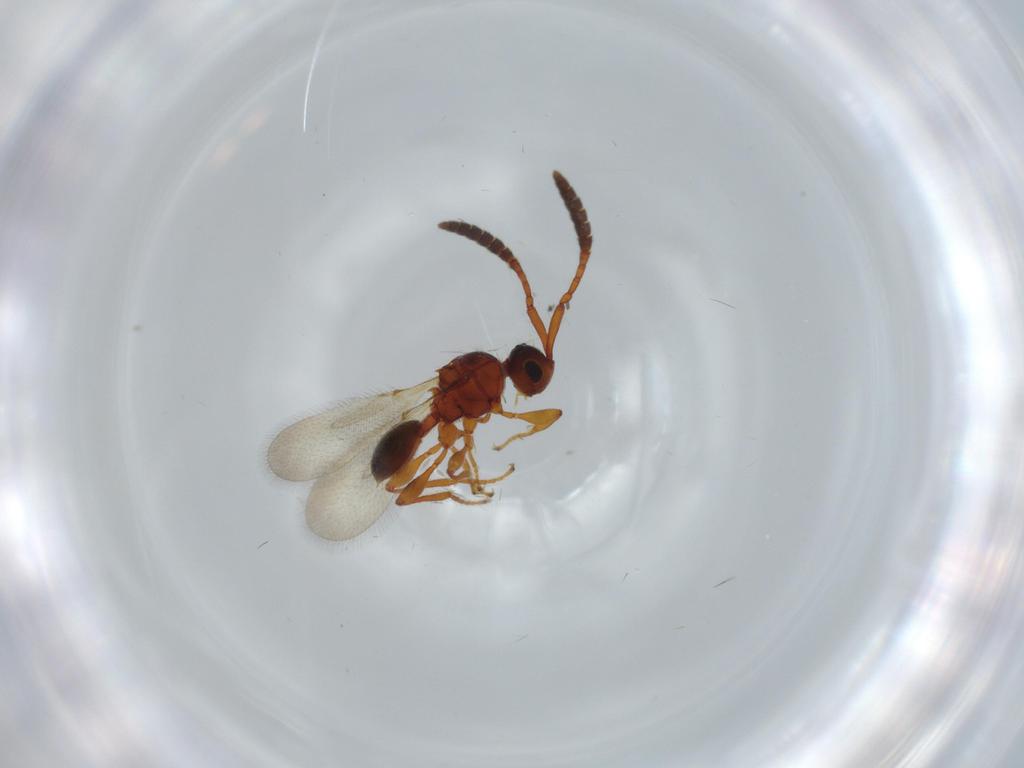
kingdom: Animalia
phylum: Arthropoda
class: Insecta
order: Hymenoptera
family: Diapriidae
